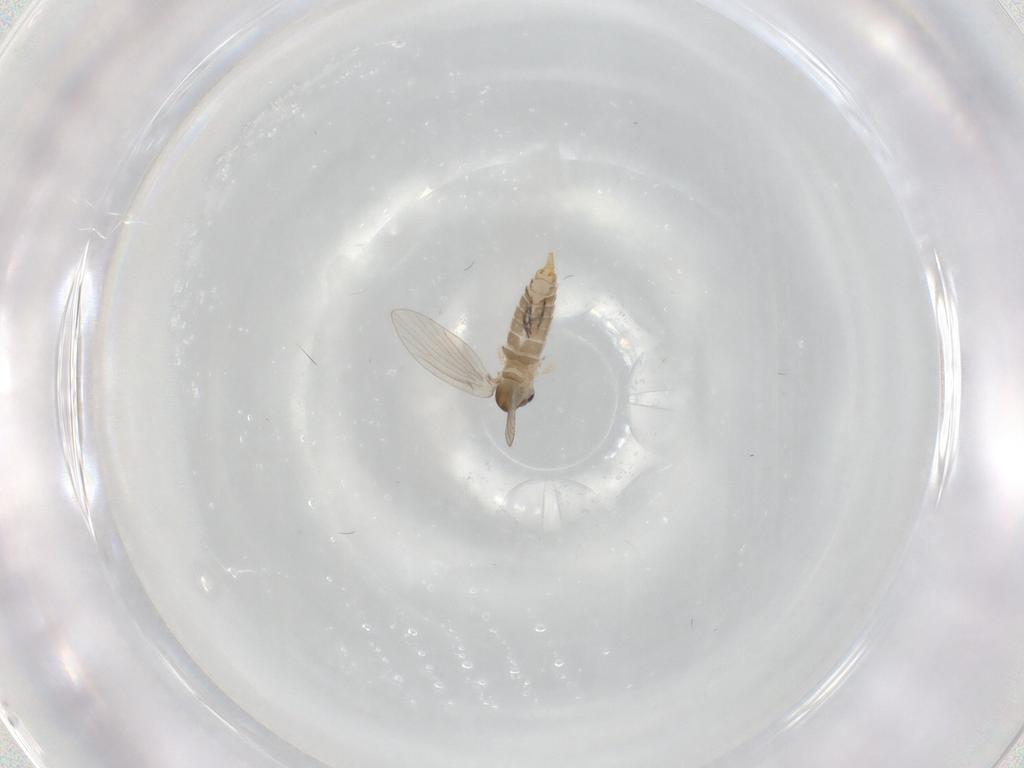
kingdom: Animalia
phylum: Arthropoda
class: Insecta
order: Diptera
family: Psychodidae
